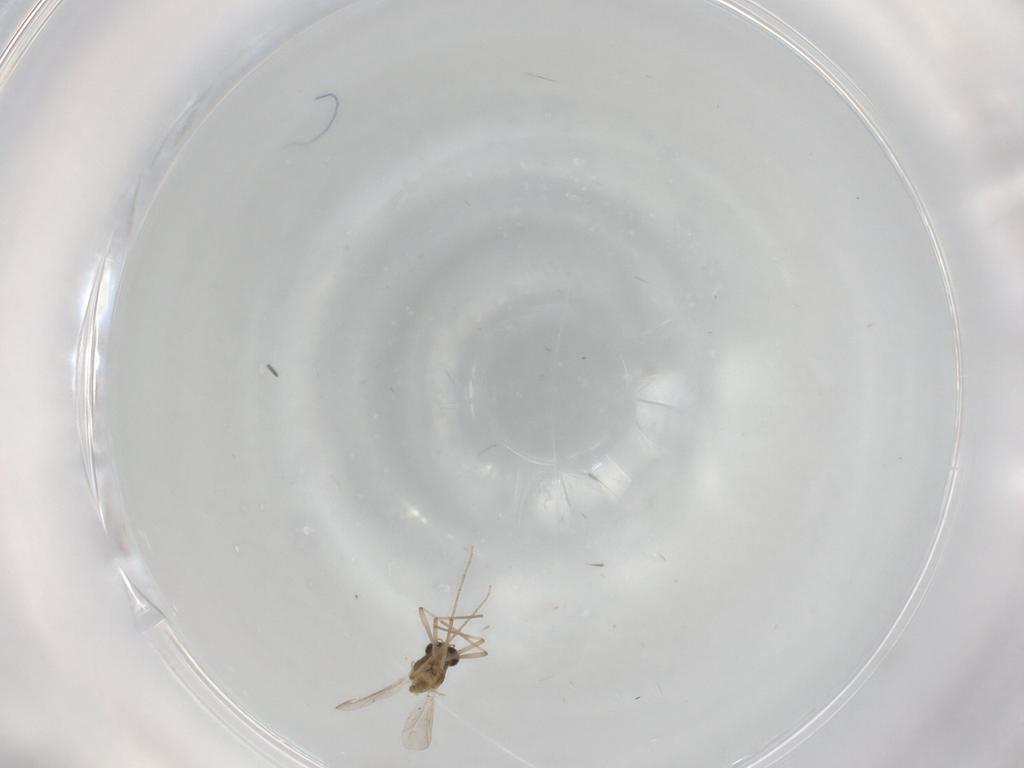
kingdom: Animalia
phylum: Arthropoda
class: Insecta
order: Diptera
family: Chironomidae
